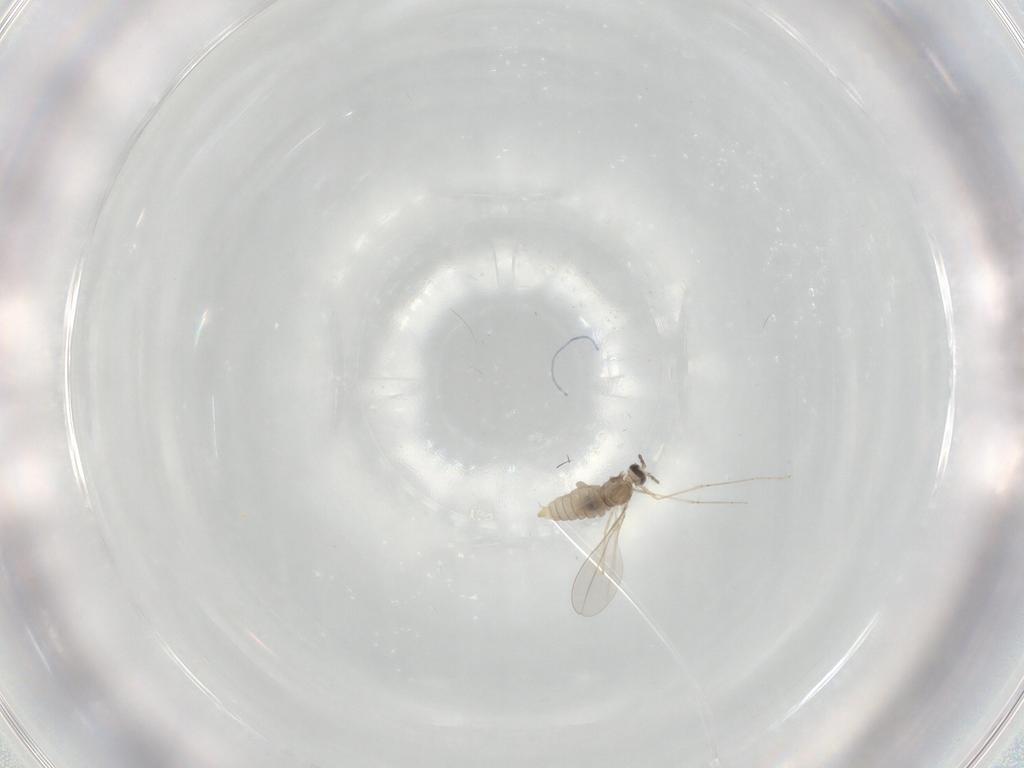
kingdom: Animalia
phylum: Arthropoda
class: Insecta
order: Diptera
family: Cecidomyiidae
